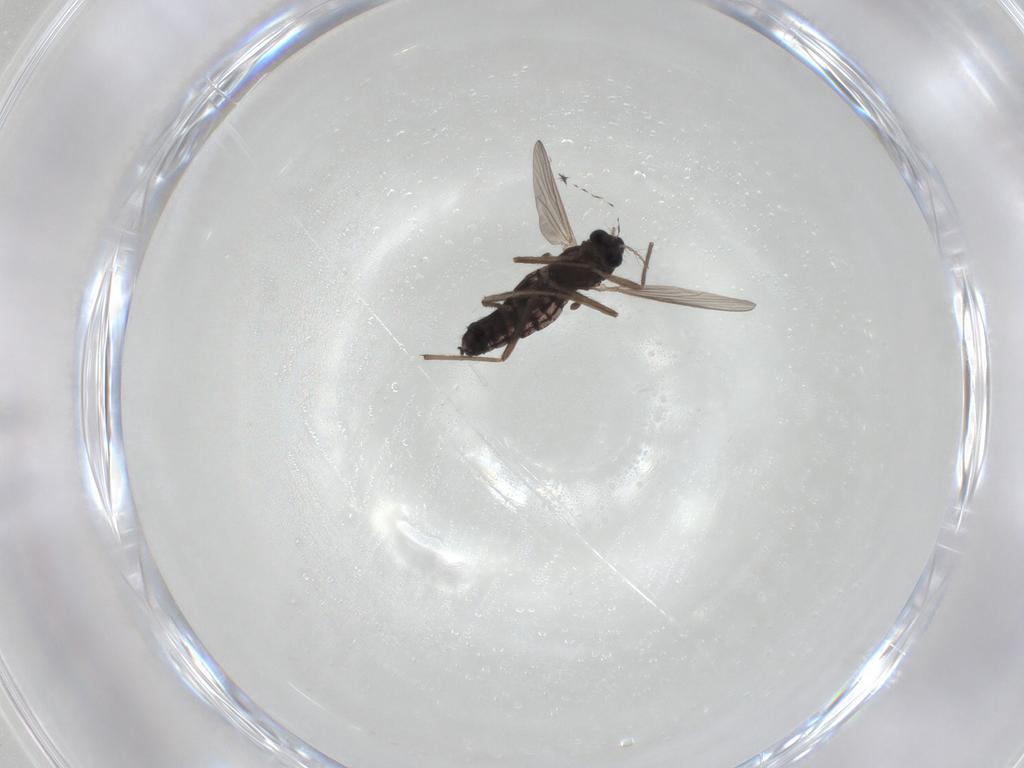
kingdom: Animalia
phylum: Arthropoda
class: Insecta
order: Diptera
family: Chironomidae
